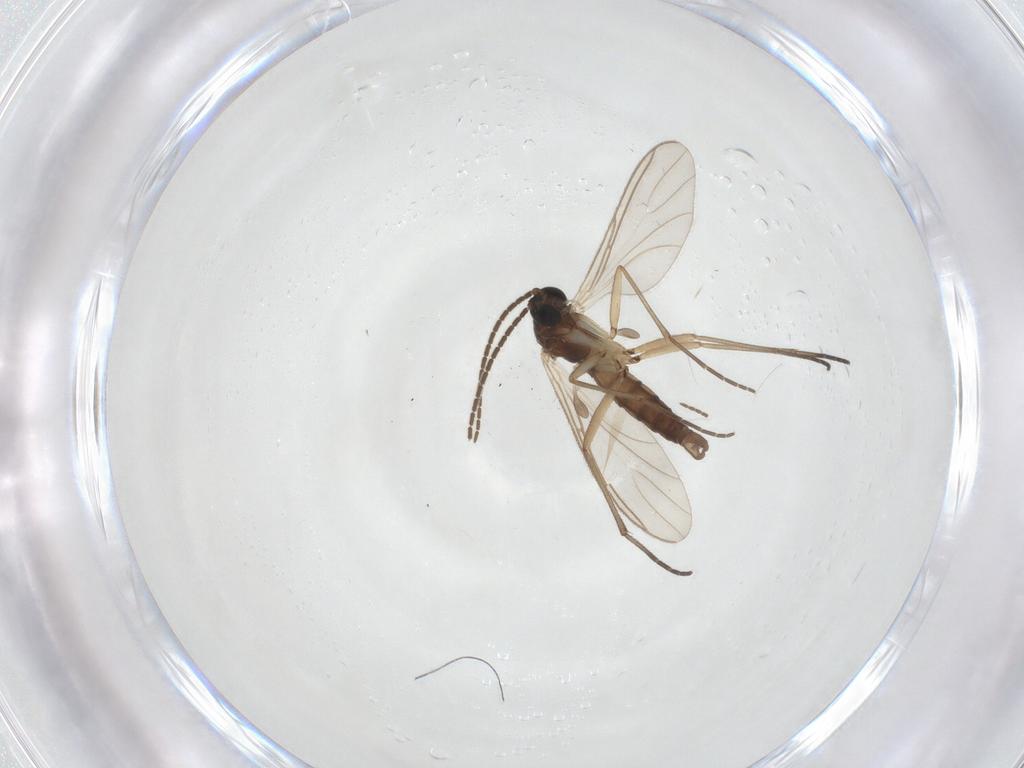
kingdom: Animalia
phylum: Arthropoda
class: Insecta
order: Diptera
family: Sciaridae
